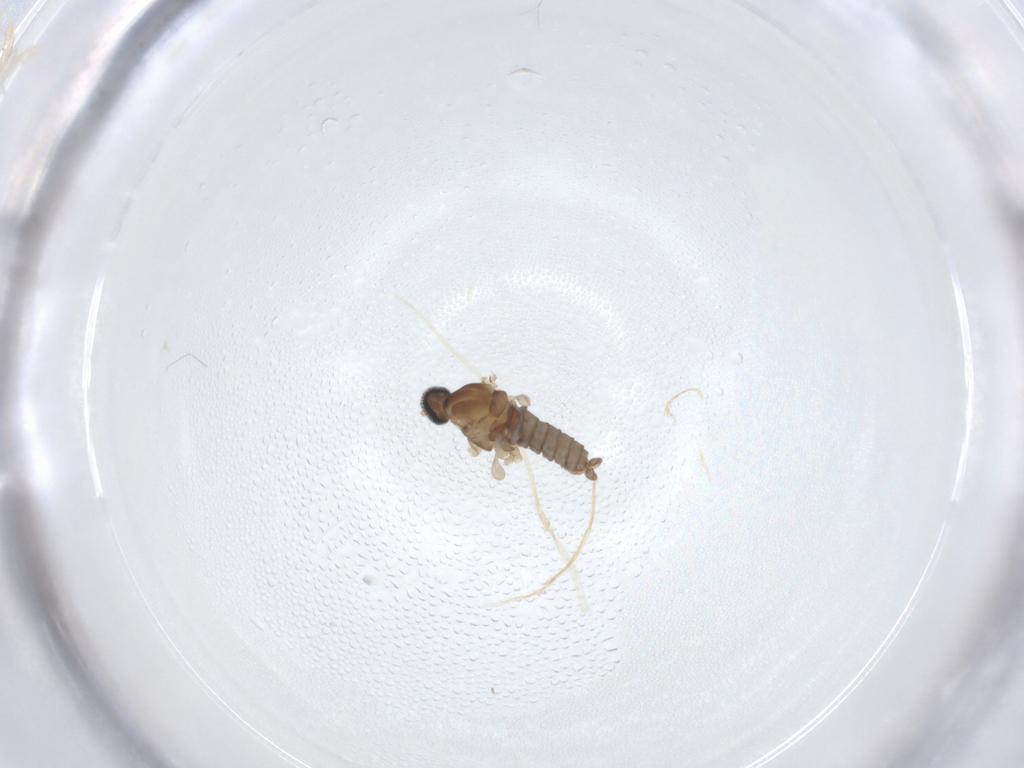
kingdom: Animalia
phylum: Arthropoda
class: Insecta
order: Diptera
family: Cecidomyiidae
